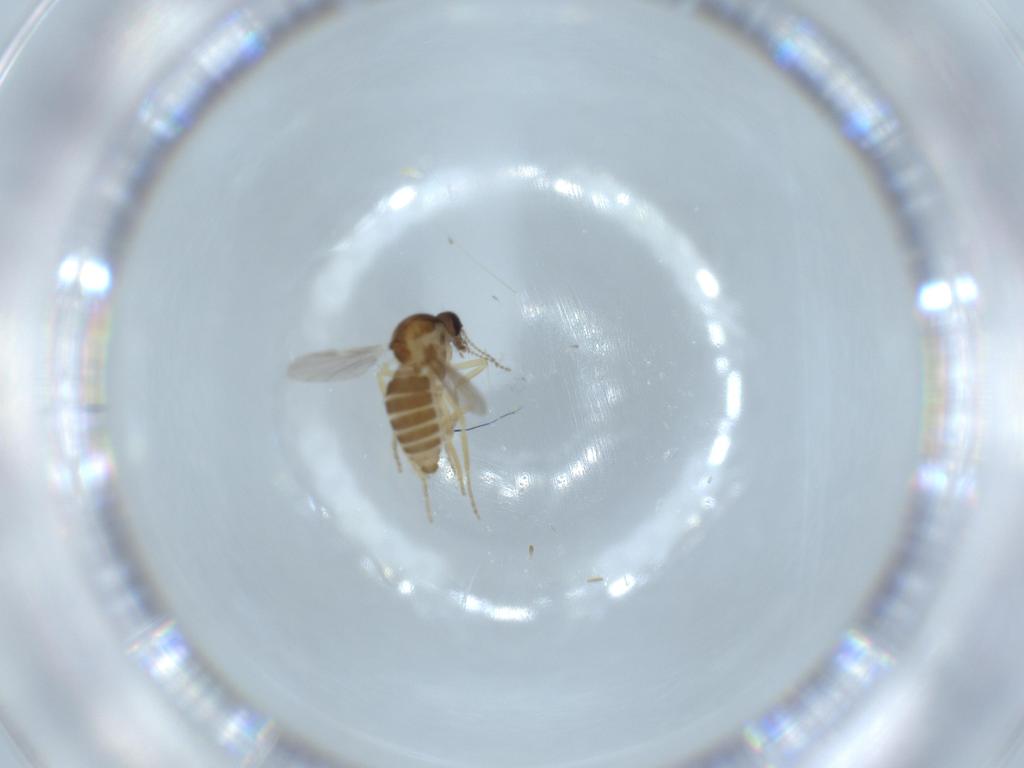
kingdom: Animalia
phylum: Arthropoda
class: Insecta
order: Diptera
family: Ceratopogonidae
